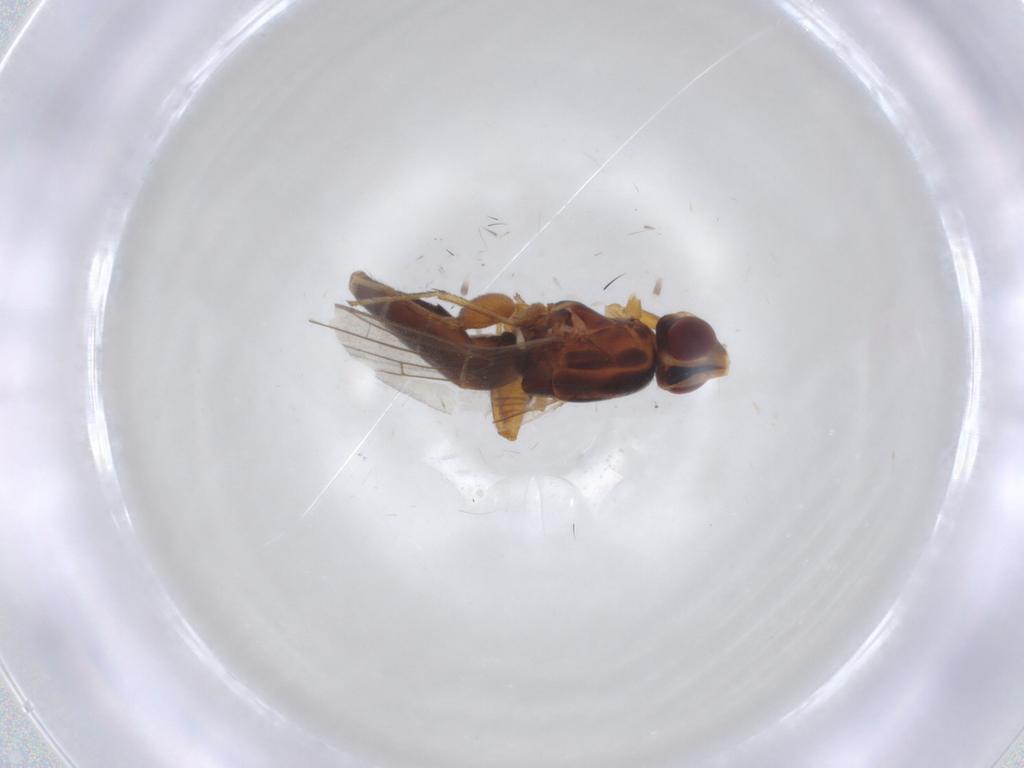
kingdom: Animalia
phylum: Arthropoda
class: Insecta
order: Diptera
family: Chloropidae
